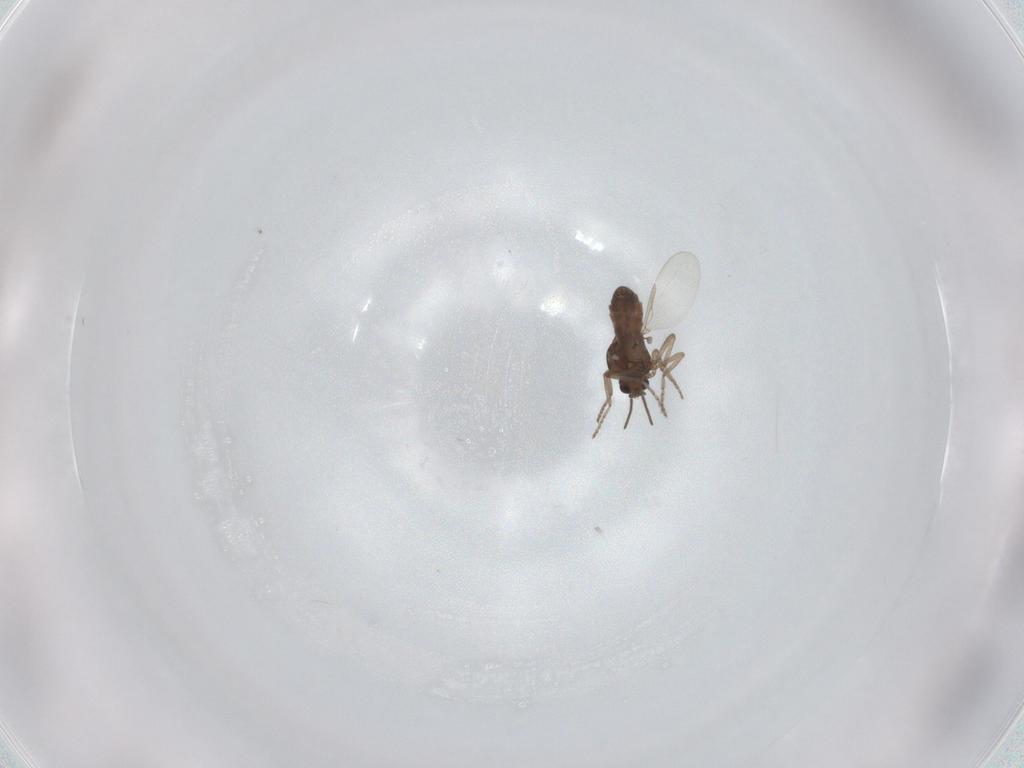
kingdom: Animalia
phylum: Arthropoda
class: Insecta
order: Diptera
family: Ceratopogonidae
